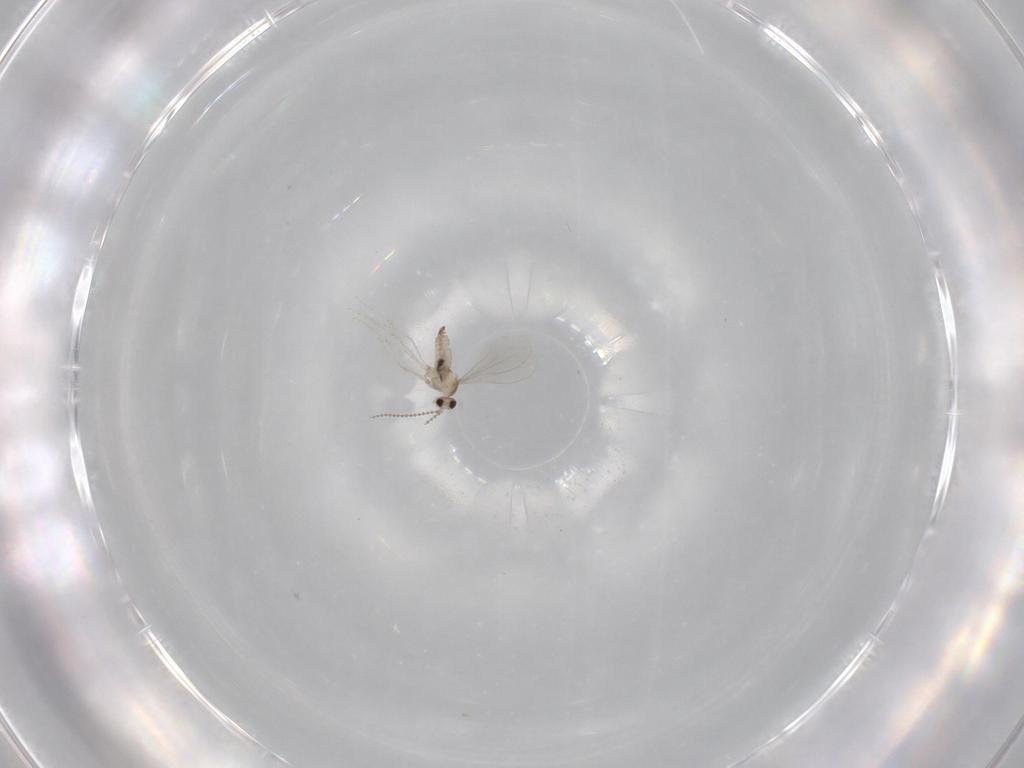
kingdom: Animalia
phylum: Arthropoda
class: Insecta
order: Diptera
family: Cecidomyiidae
